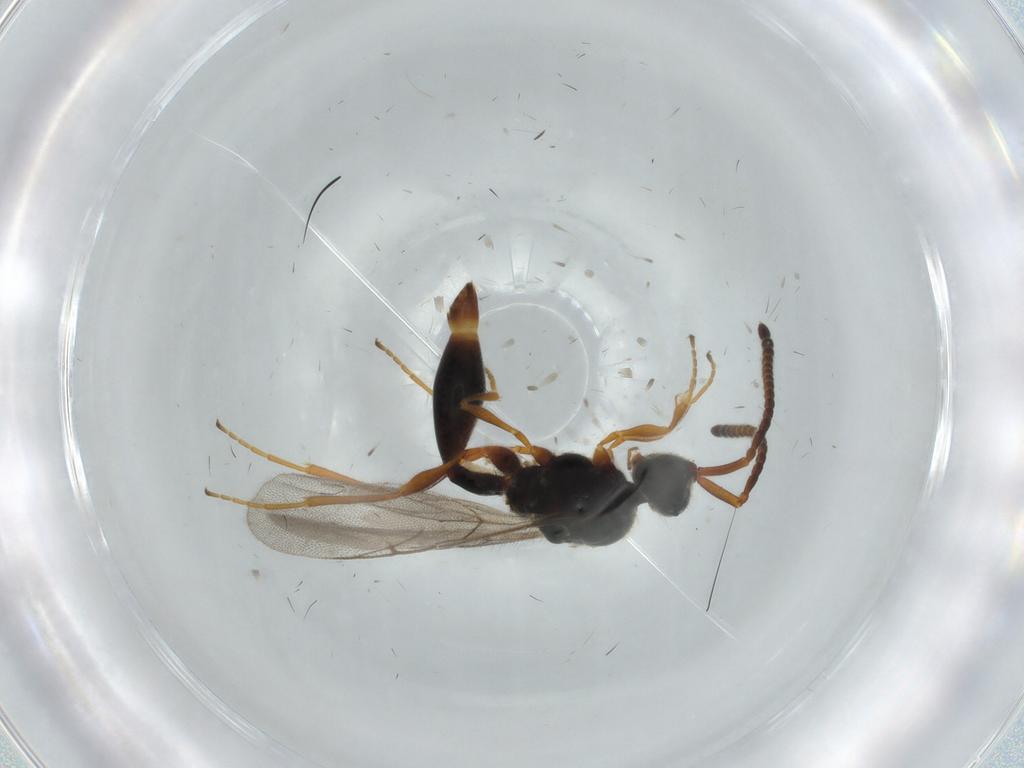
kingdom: Animalia
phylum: Arthropoda
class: Insecta
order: Hymenoptera
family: Diapriidae
